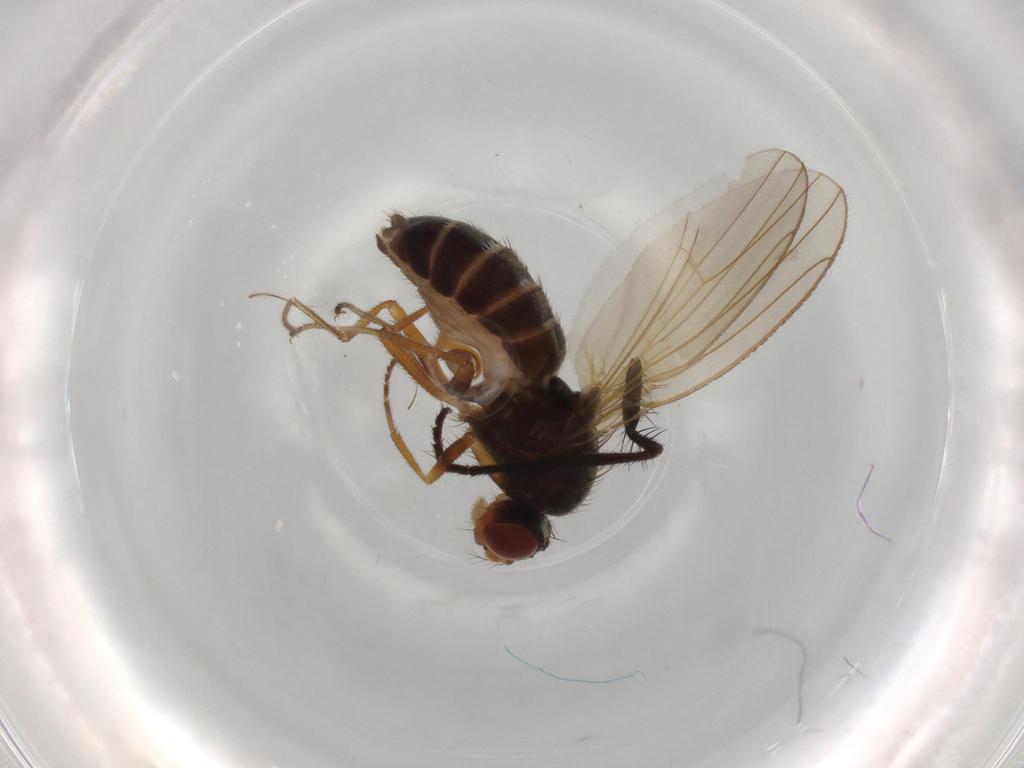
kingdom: Animalia
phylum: Arthropoda
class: Insecta
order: Diptera
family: Drosophilidae
